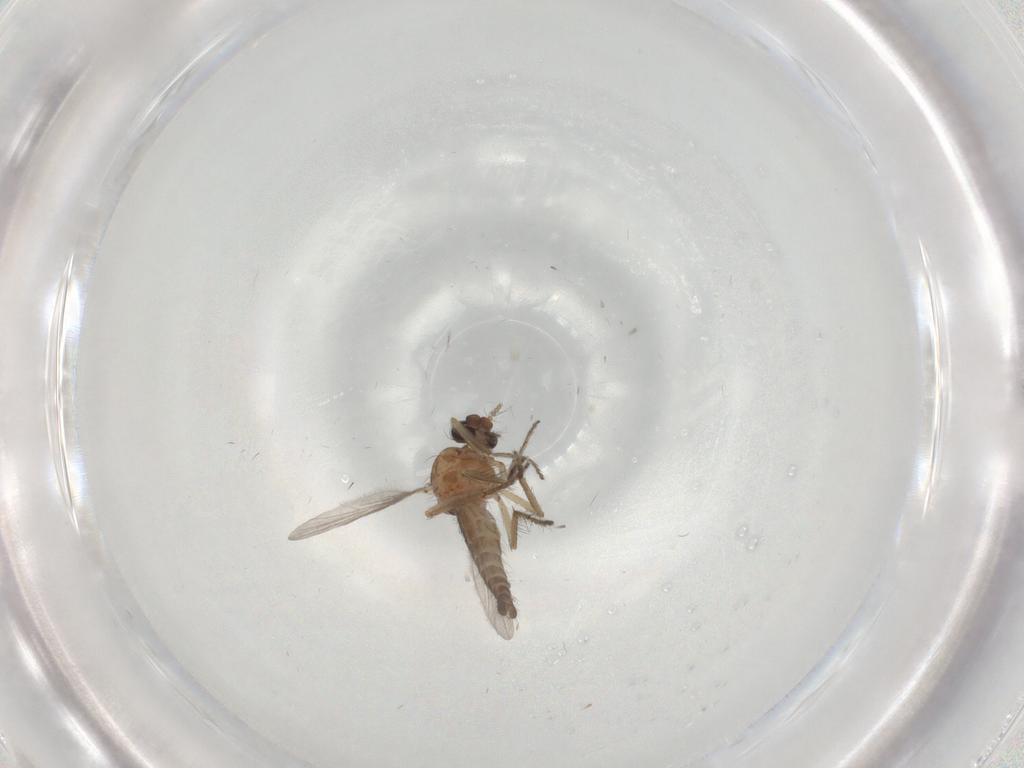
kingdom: Animalia
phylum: Arthropoda
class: Insecta
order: Diptera
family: Ceratopogonidae
